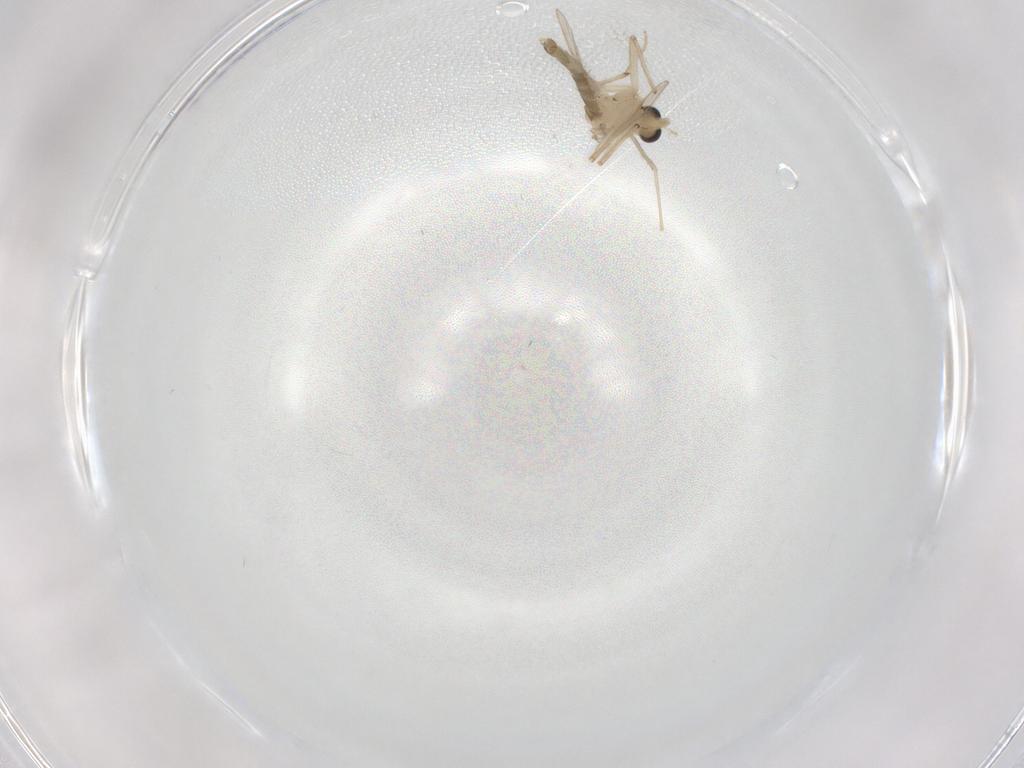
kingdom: Animalia
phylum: Arthropoda
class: Insecta
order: Diptera
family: Chironomidae
